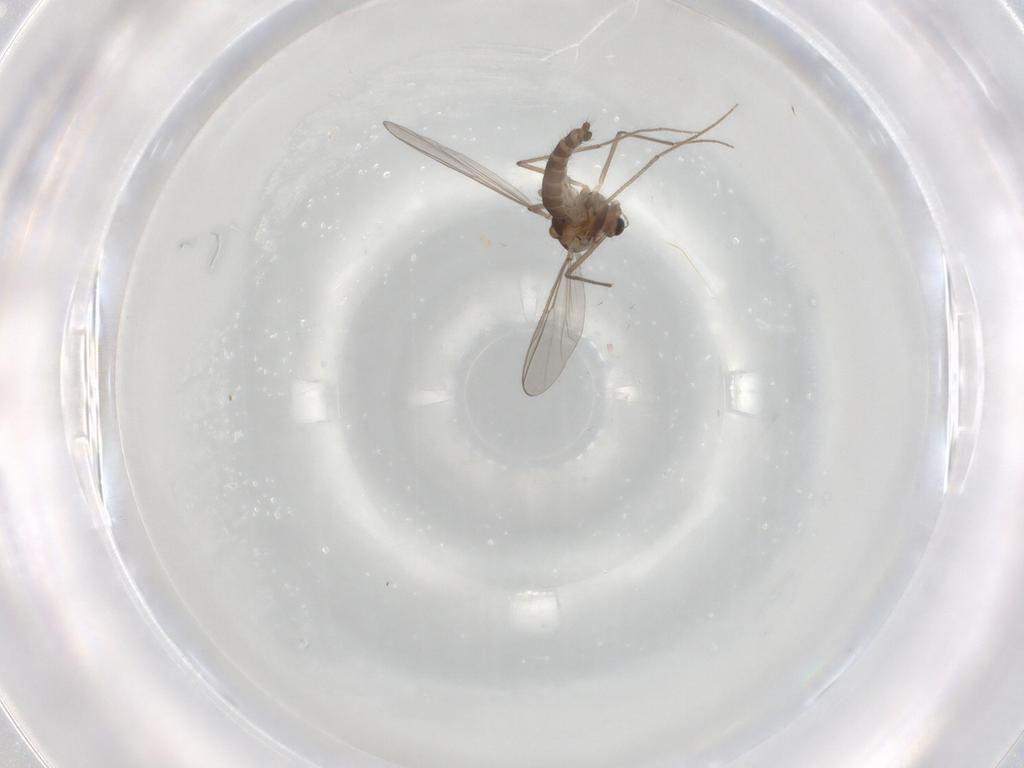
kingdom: Animalia
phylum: Arthropoda
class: Insecta
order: Diptera
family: Chironomidae
